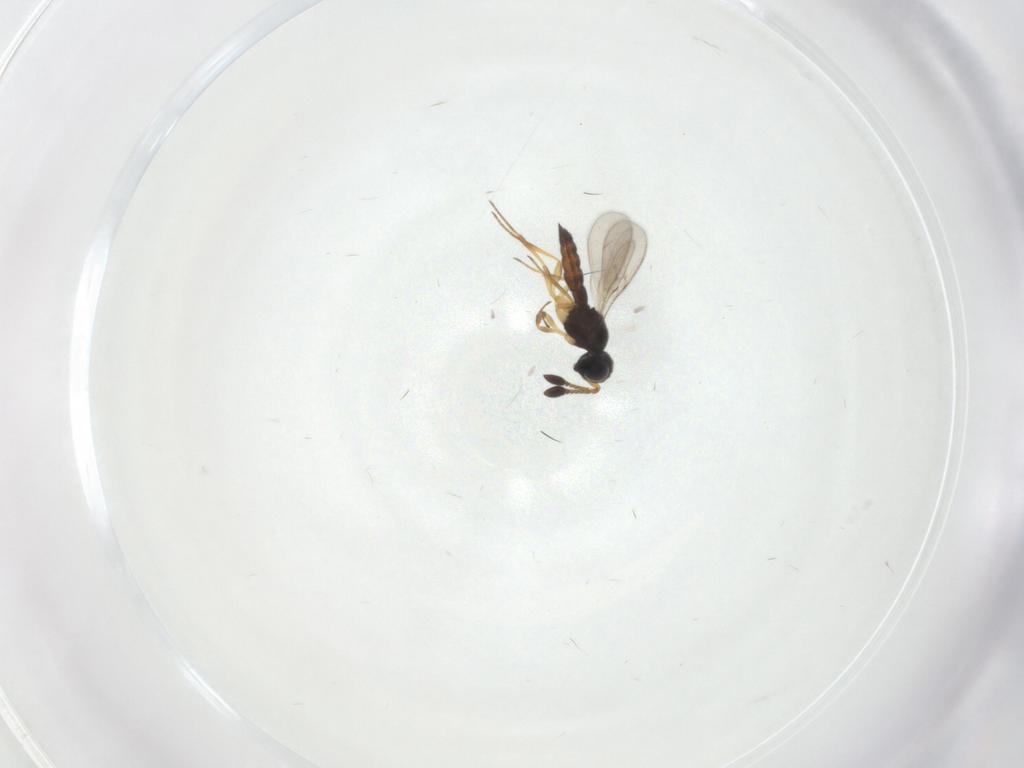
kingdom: Animalia
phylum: Arthropoda
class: Insecta
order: Hymenoptera
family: Scelionidae
